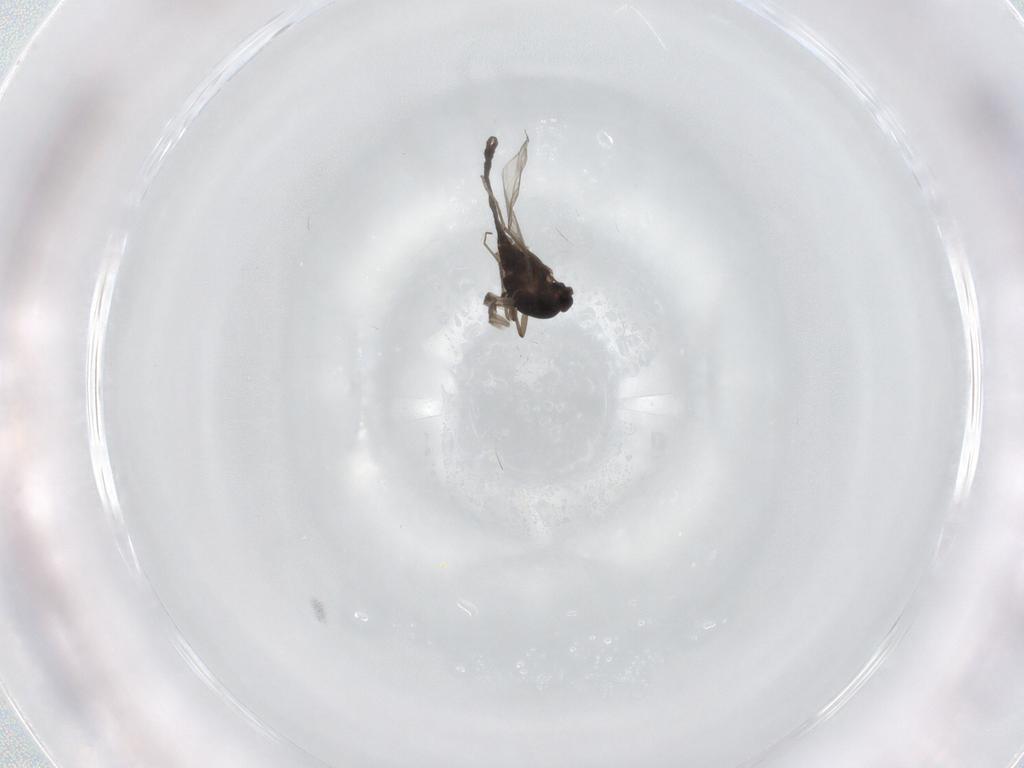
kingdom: Animalia
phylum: Arthropoda
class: Insecta
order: Diptera
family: Chironomidae
